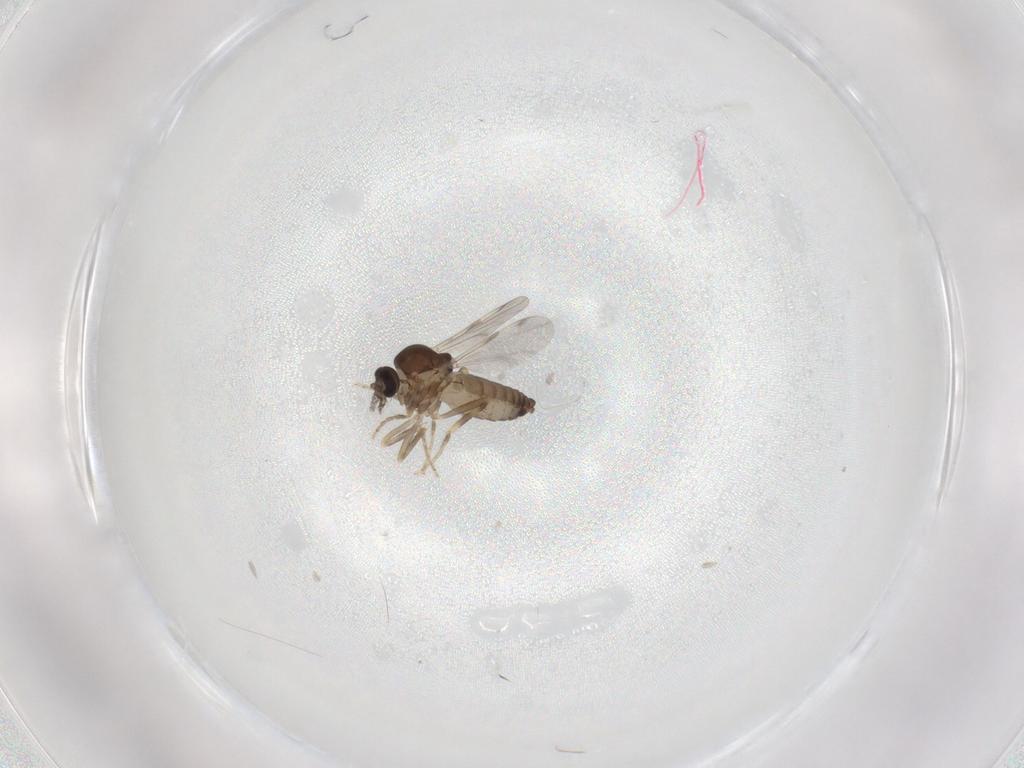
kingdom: Animalia
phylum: Arthropoda
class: Insecta
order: Diptera
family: Ceratopogonidae
